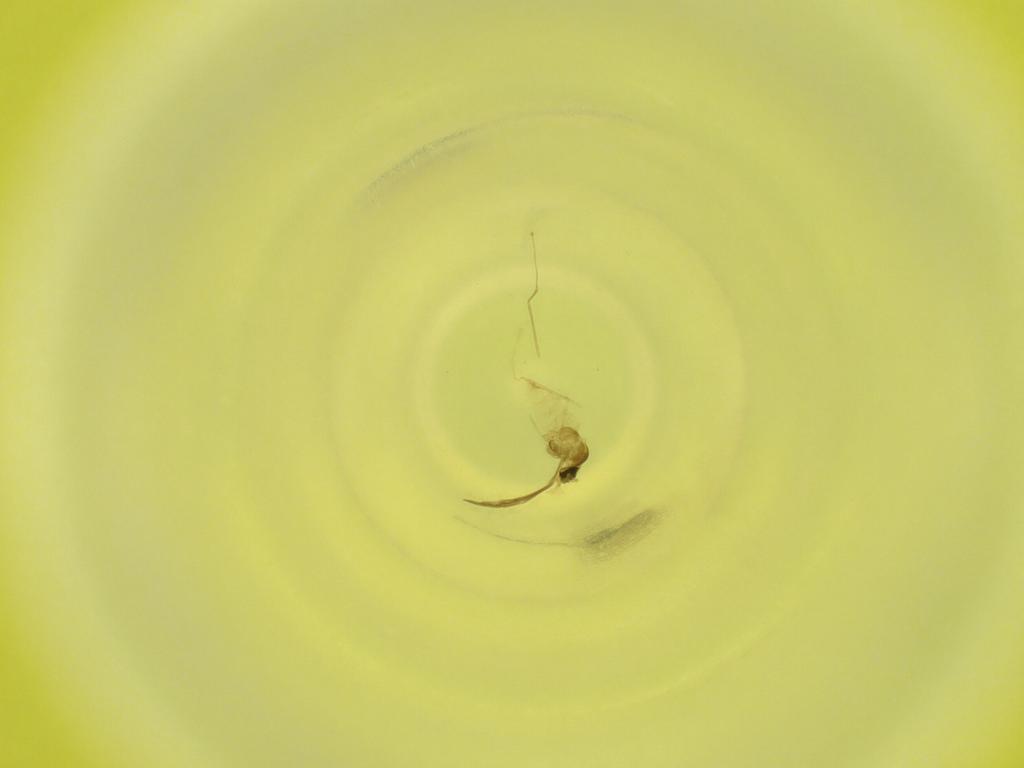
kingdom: Animalia
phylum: Arthropoda
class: Insecta
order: Diptera
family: Cecidomyiidae
